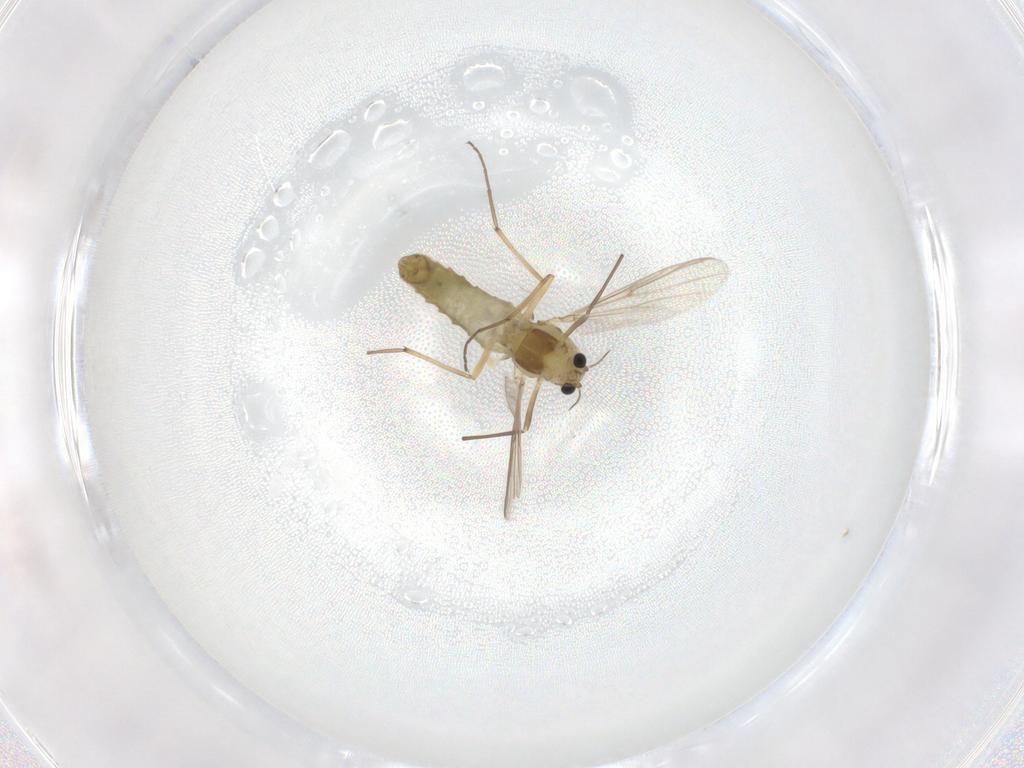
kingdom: Animalia
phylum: Arthropoda
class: Insecta
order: Diptera
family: Chironomidae
